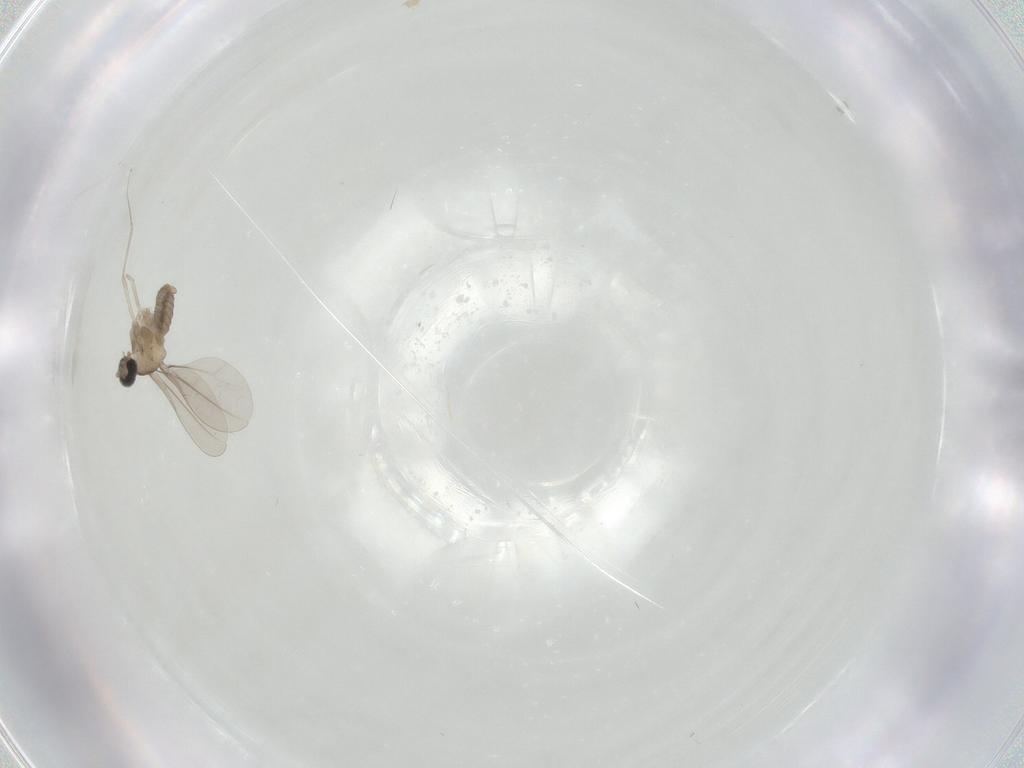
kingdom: Animalia
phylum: Arthropoda
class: Insecta
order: Diptera
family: Cecidomyiidae
